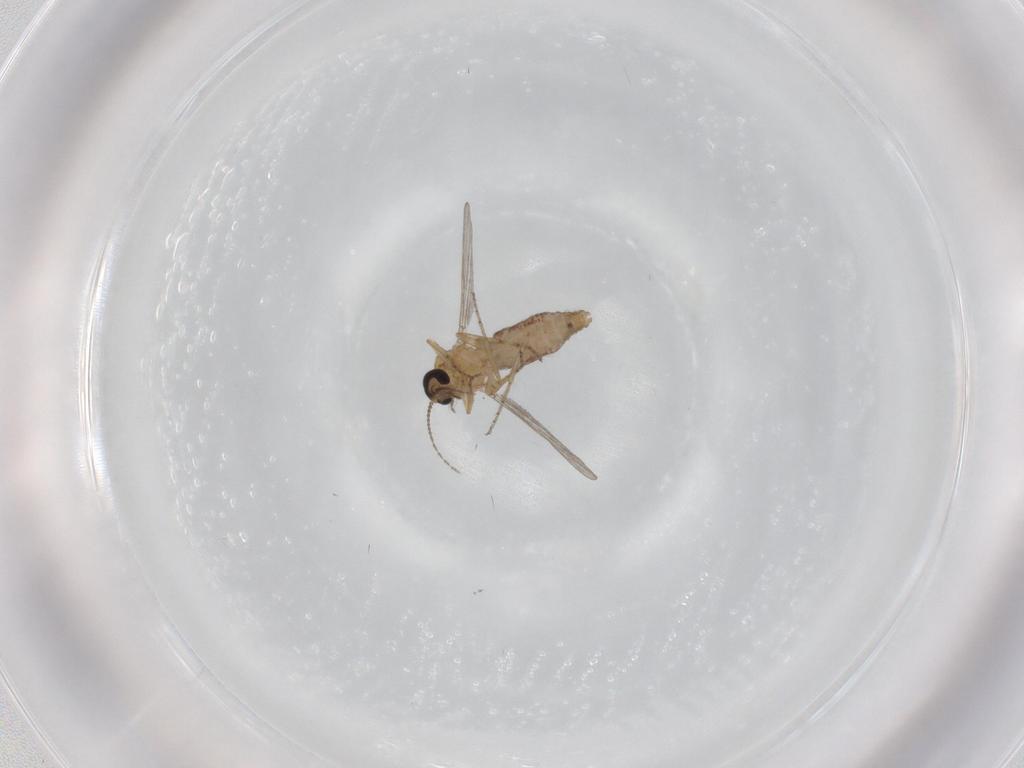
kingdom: Animalia
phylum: Arthropoda
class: Insecta
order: Diptera
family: Ceratopogonidae
